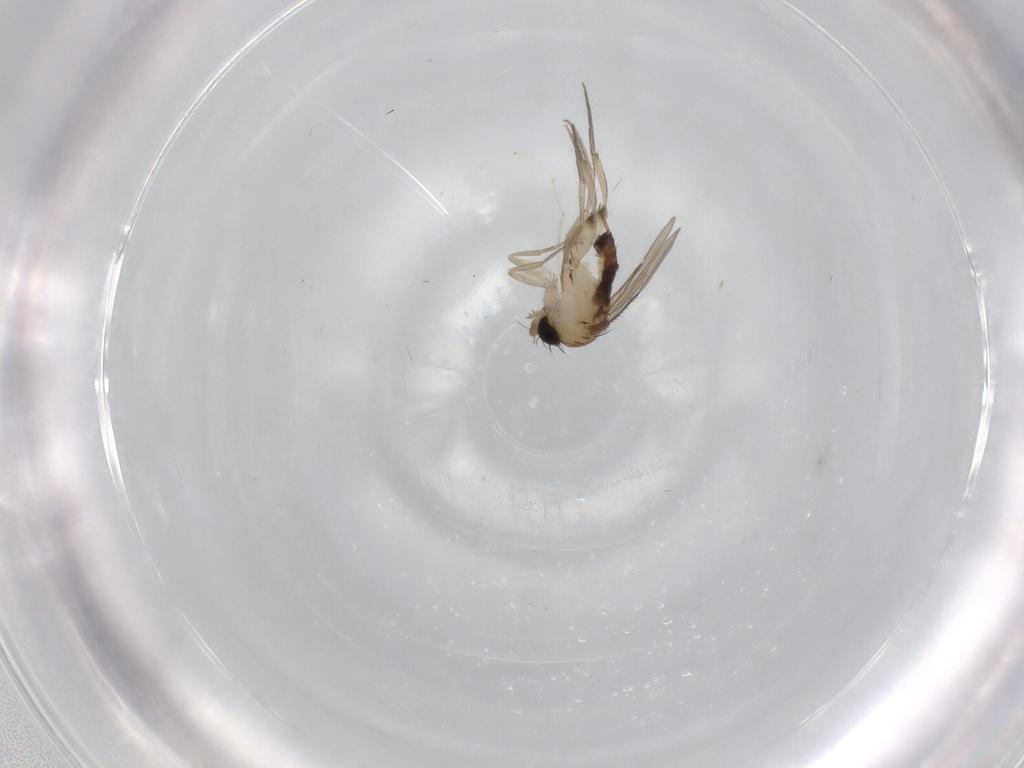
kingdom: Animalia
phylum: Arthropoda
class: Insecta
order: Diptera
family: Phoridae
